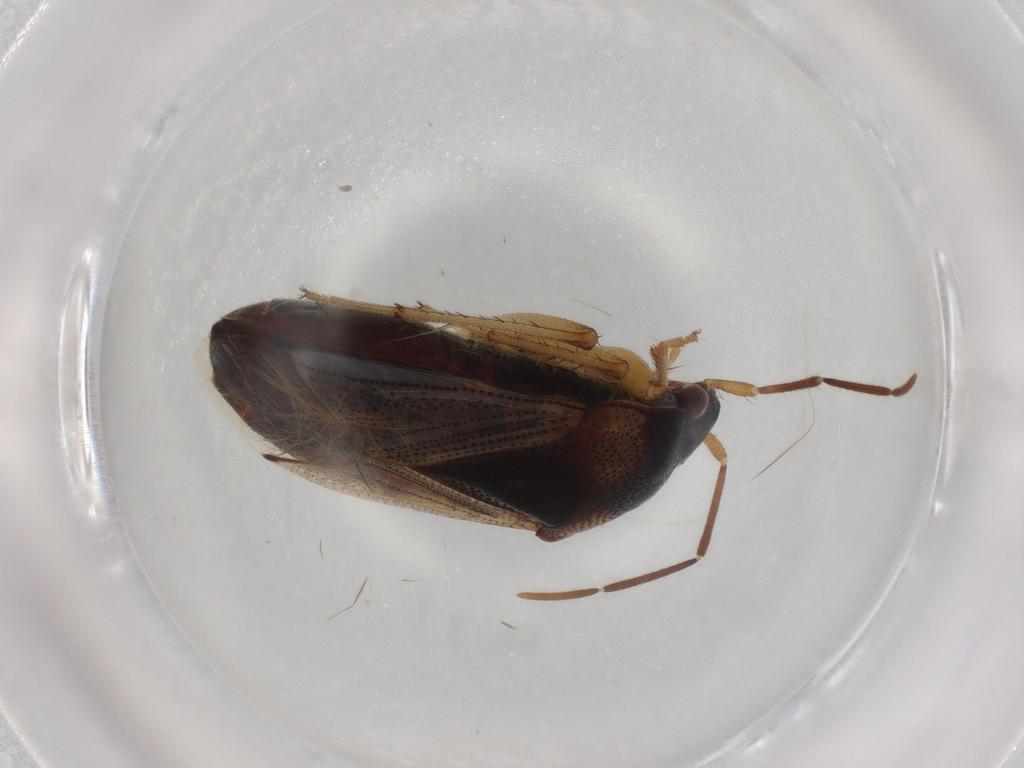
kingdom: Animalia
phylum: Arthropoda
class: Insecta
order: Hemiptera
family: Rhyparochromidae
